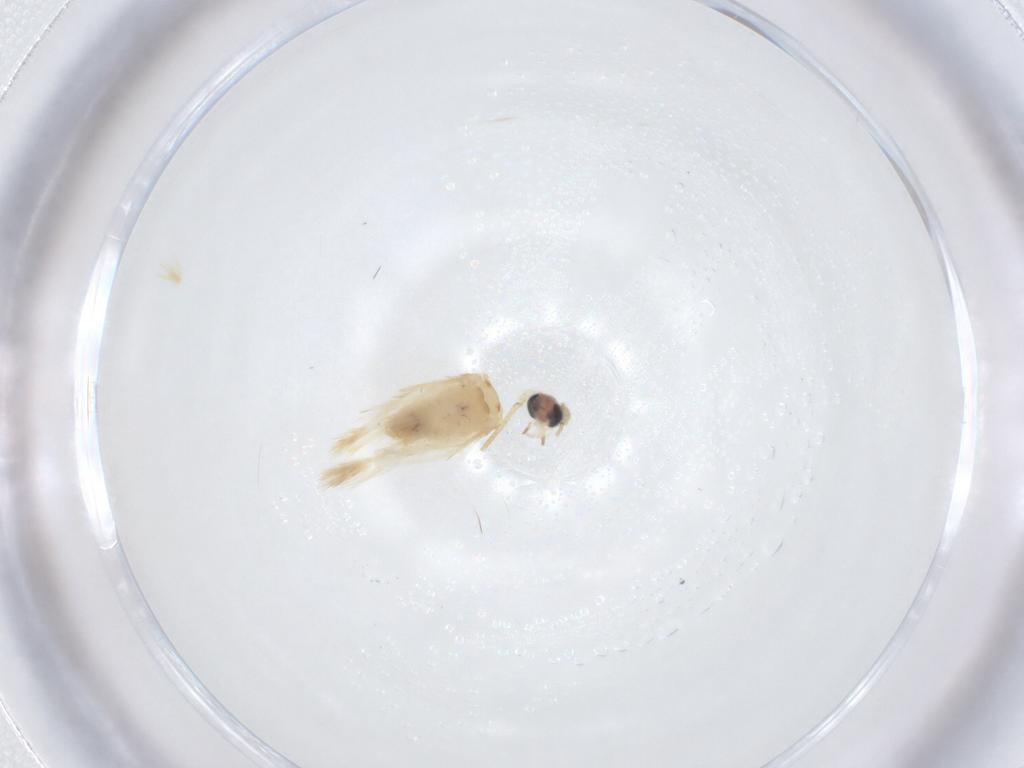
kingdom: Animalia
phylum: Arthropoda
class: Insecta
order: Lepidoptera
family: Nepticulidae
